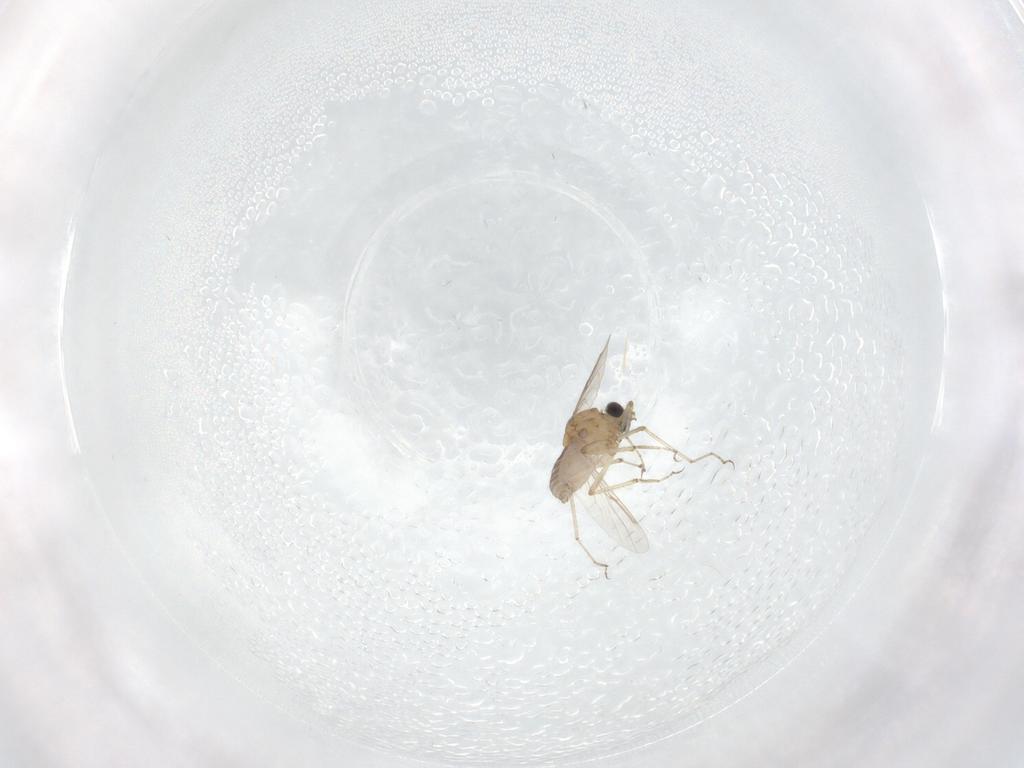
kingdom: Animalia
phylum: Arthropoda
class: Insecta
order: Diptera
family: Ceratopogonidae
